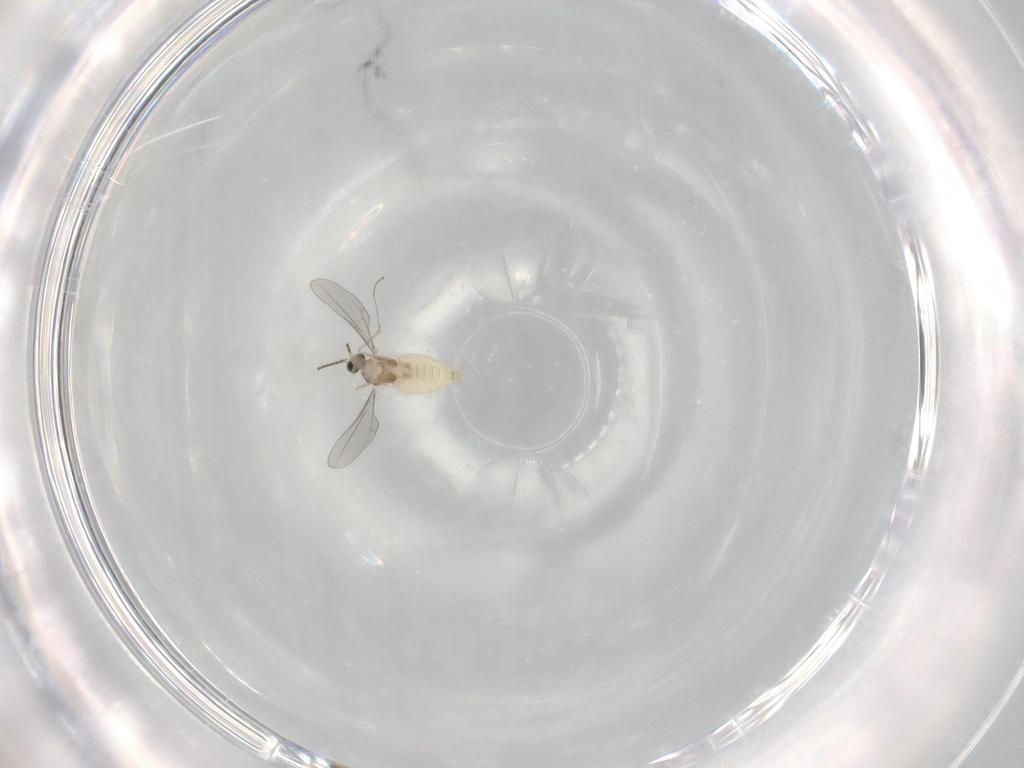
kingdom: Animalia
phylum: Arthropoda
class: Insecta
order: Diptera
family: Cecidomyiidae
